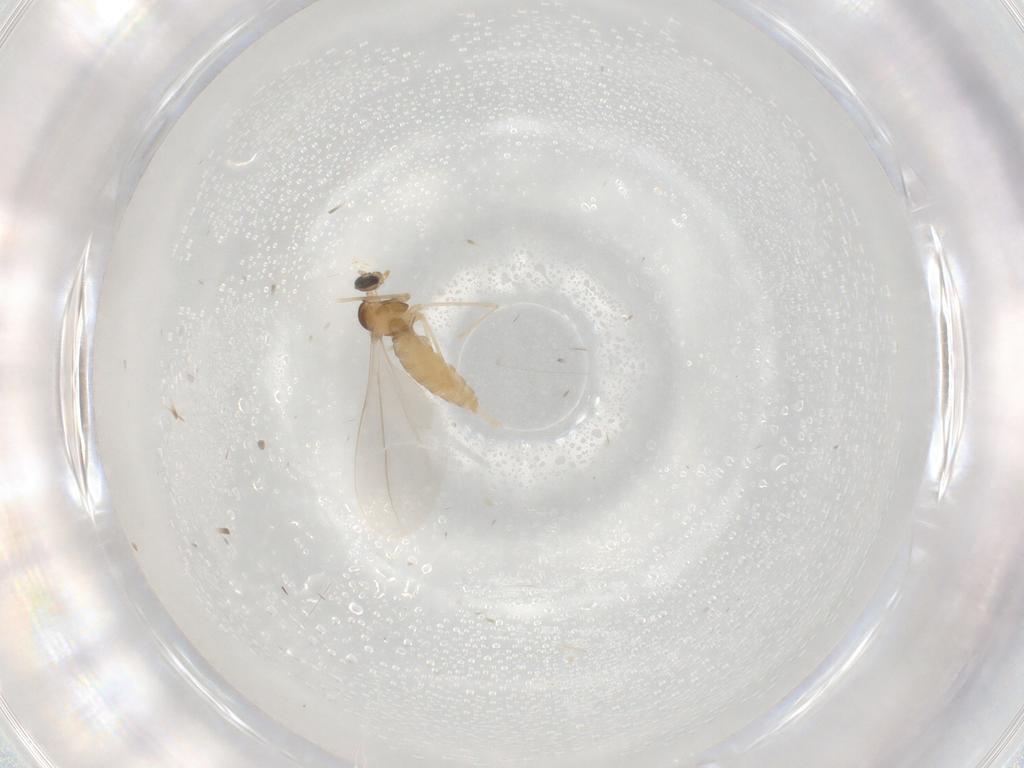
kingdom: Animalia
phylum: Arthropoda
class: Insecta
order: Diptera
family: Cecidomyiidae
